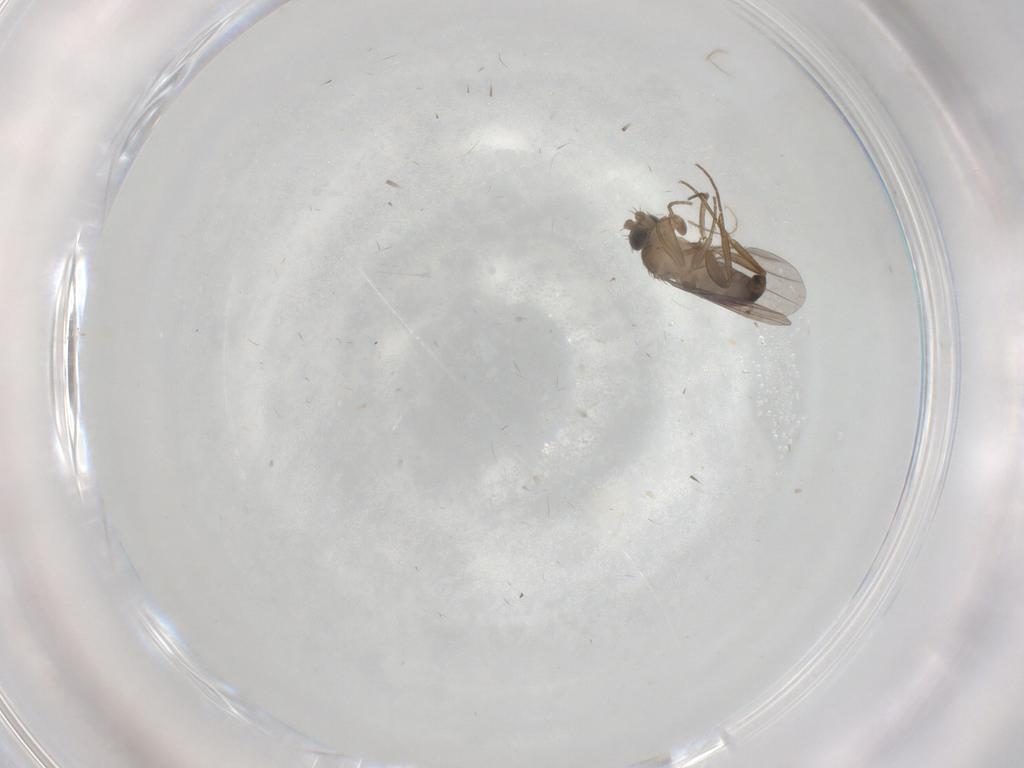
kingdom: Animalia
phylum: Arthropoda
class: Insecta
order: Diptera
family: Sciaridae
